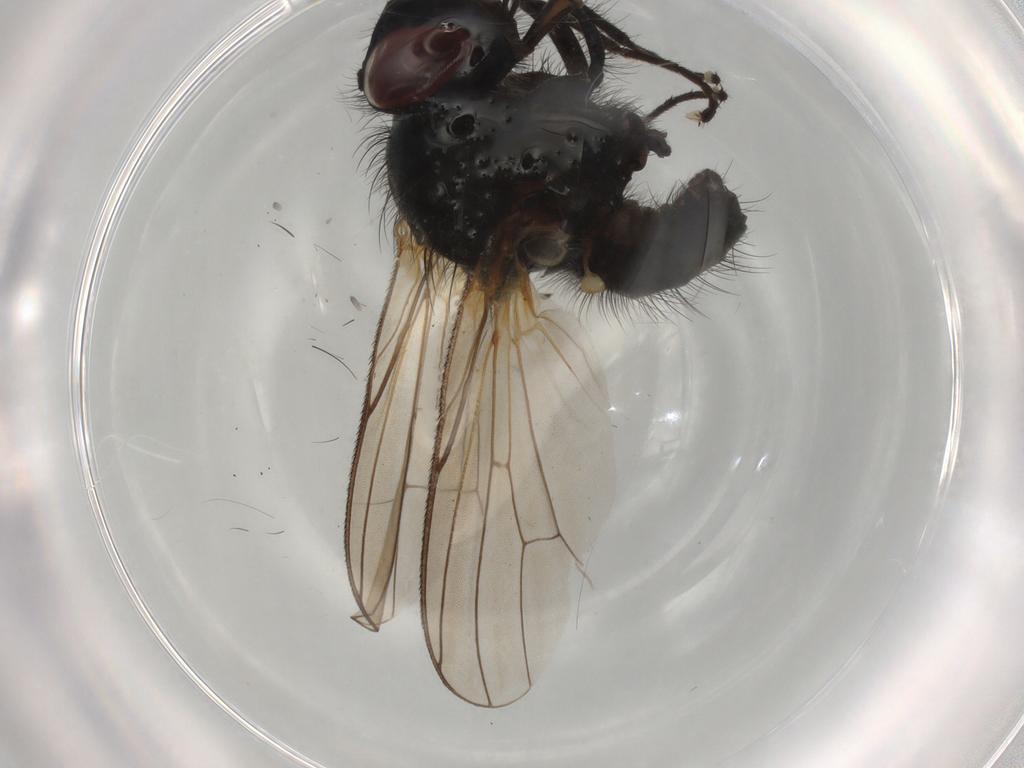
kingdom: Animalia
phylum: Arthropoda
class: Insecta
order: Diptera
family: Anthomyiidae
